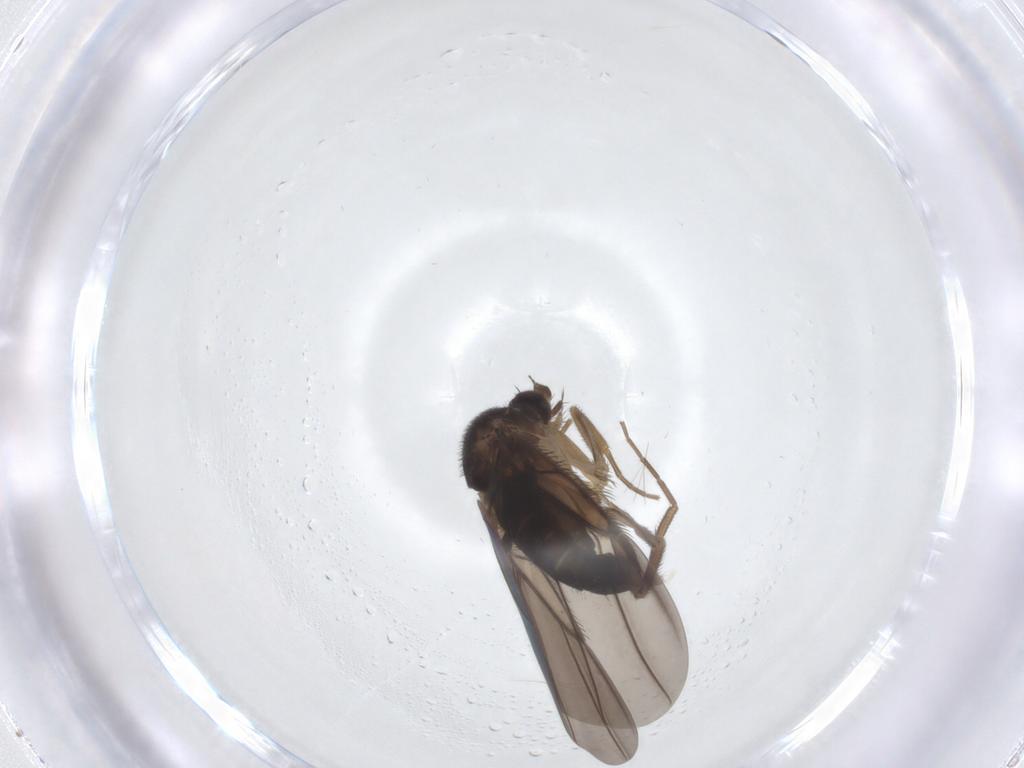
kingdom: Animalia
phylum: Arthropoda
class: Insecta
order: Diptera
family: Phoridae
